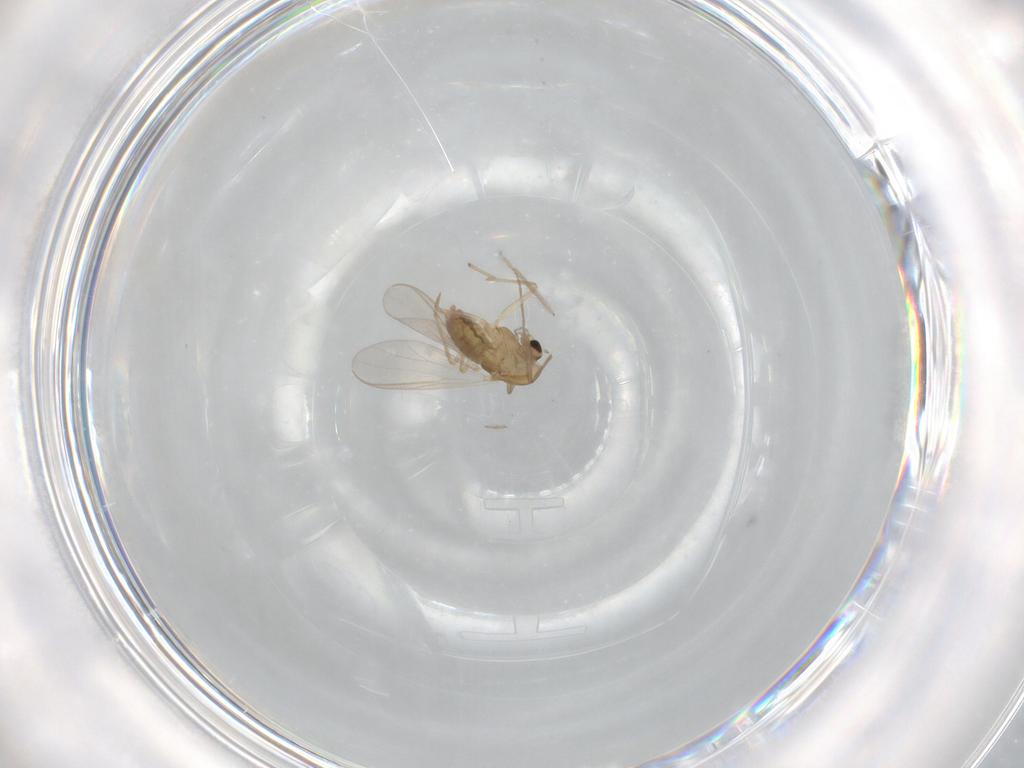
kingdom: Animalia
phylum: Arthropoda
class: Insecta
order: Diptera
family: Chironomidae
